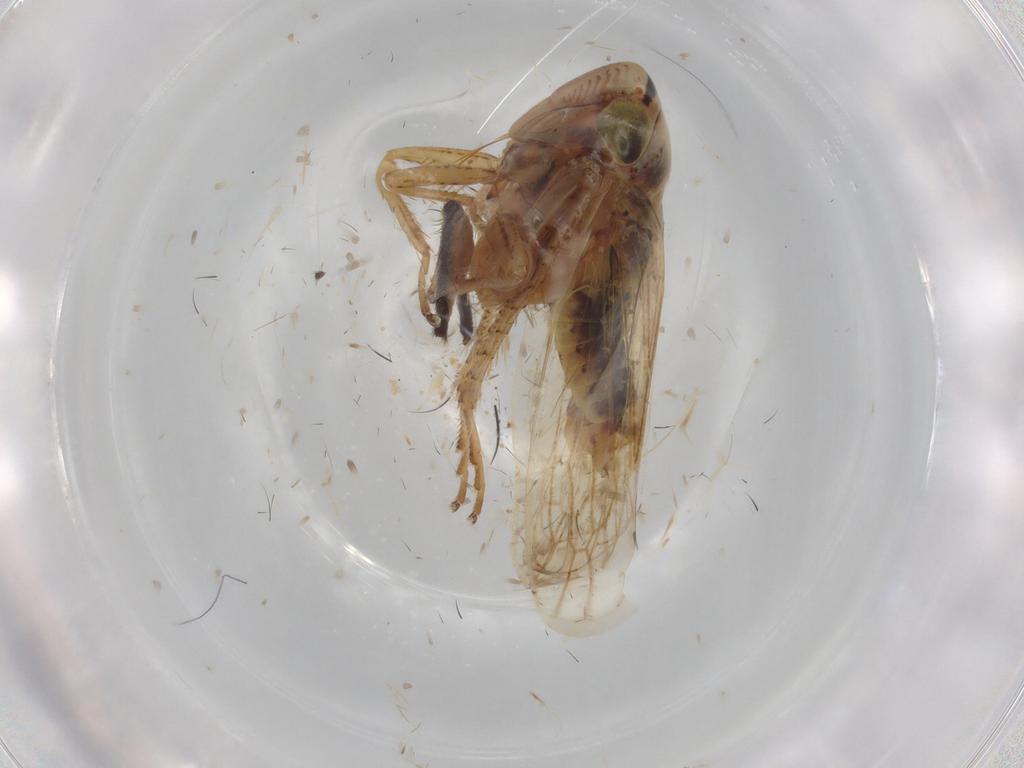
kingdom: Animalia
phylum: Arthropoda
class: Insecta
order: Hemiptera
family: Cicadellidae
